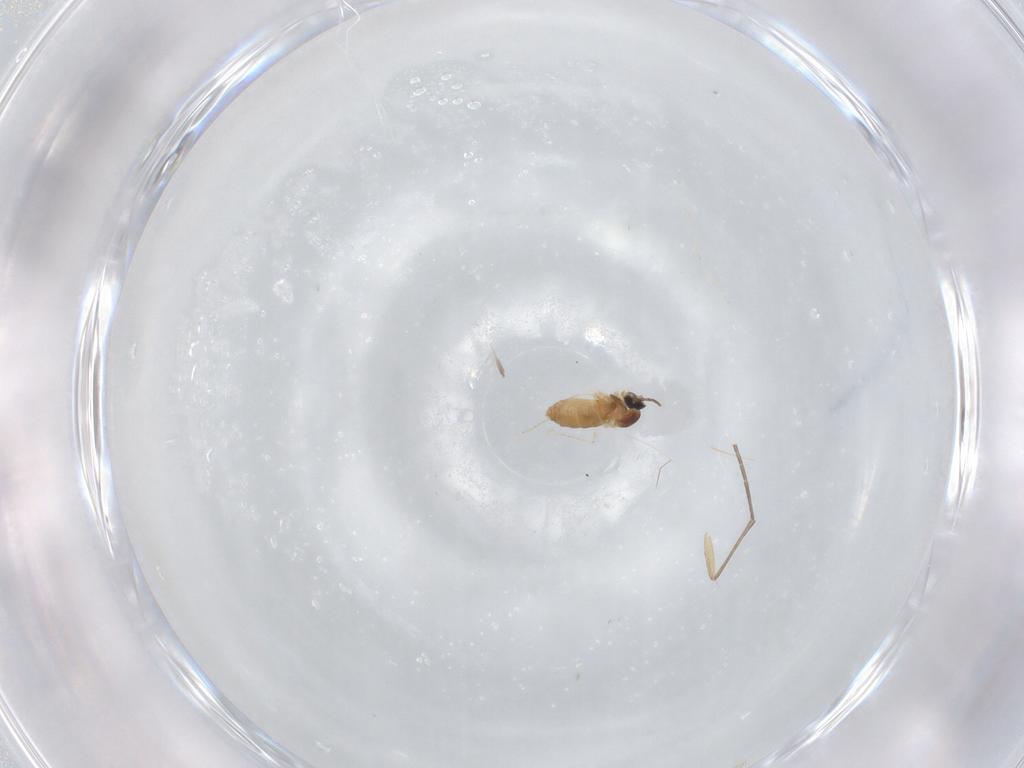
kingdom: Animalia
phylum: Arthropoda
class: Insecta
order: Diptera
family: Cecidomyiidae
